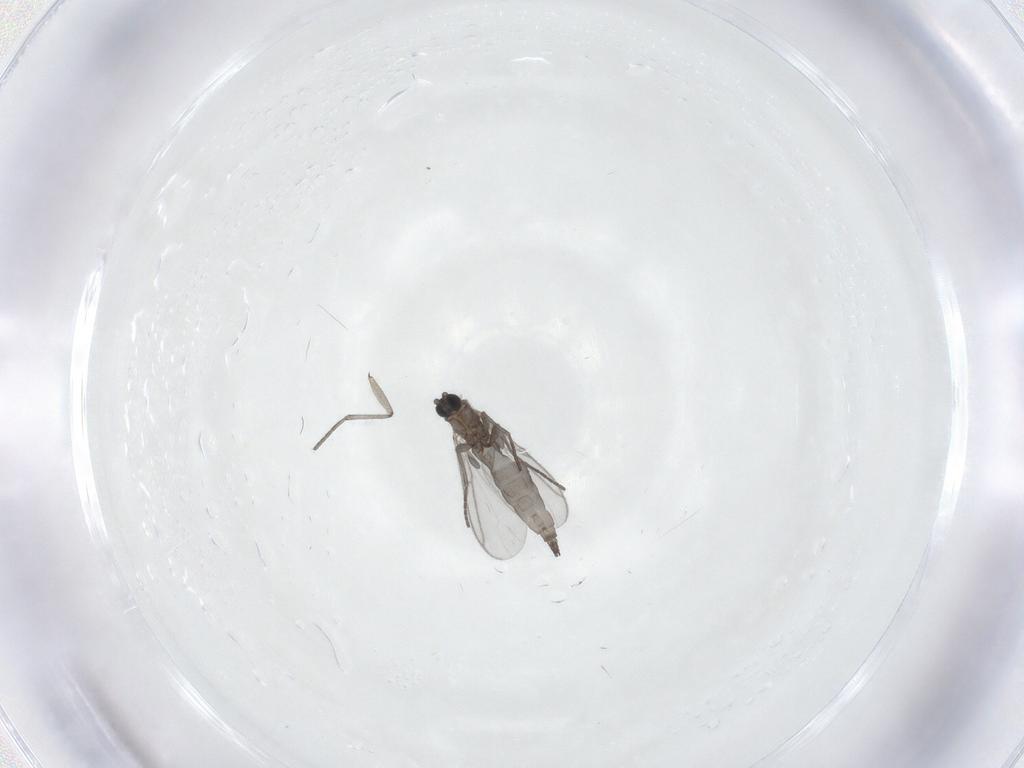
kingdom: Animalia
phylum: Arthropoda
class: Insecta
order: Diptera
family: Sciaridae
